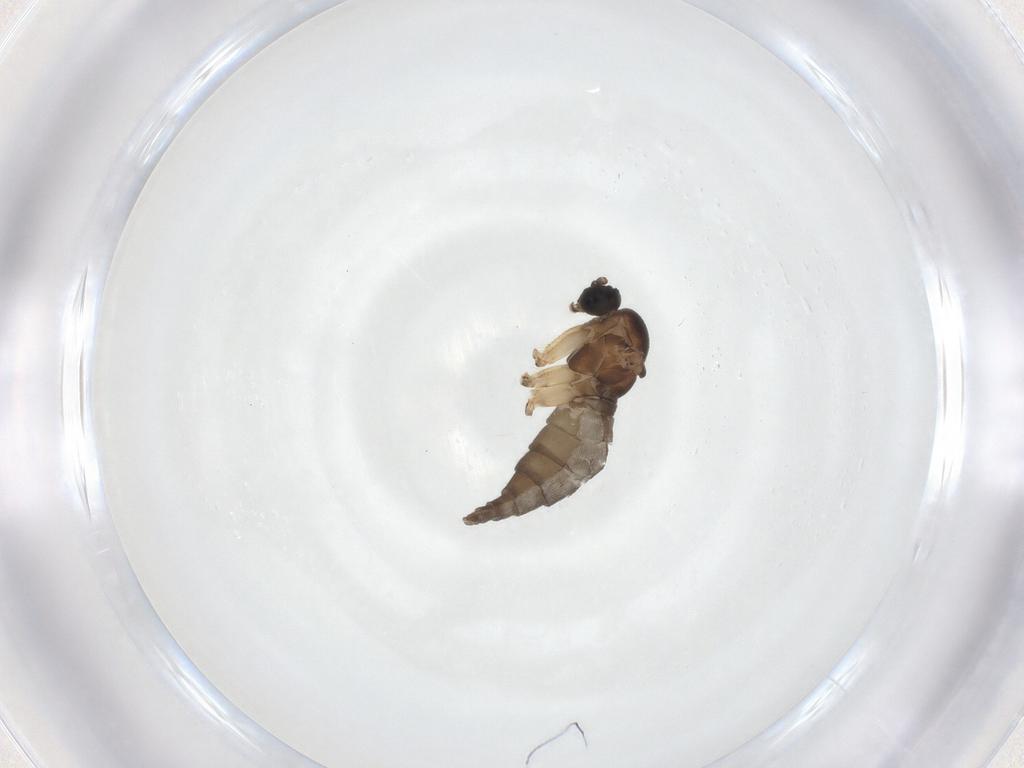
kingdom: Animalia
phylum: Arthropoda
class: Insecta
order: Diptera
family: Sciaridae
